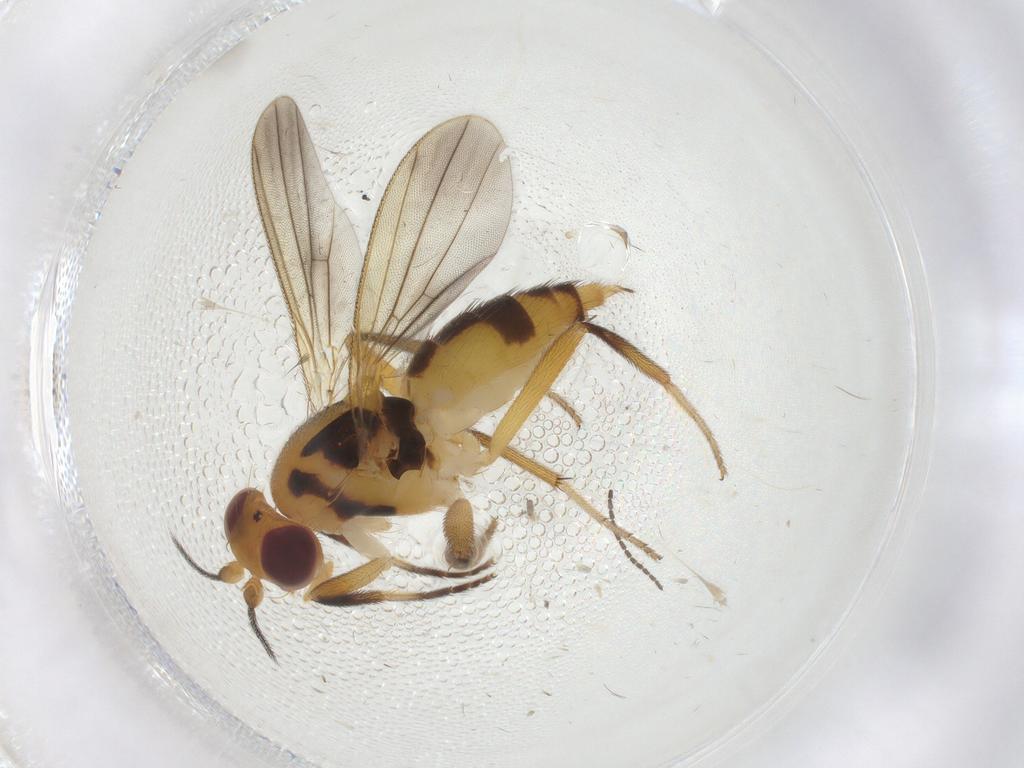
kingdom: Animalia
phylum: Arthropoda
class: Insecta
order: Diptera
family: Clusiidae
